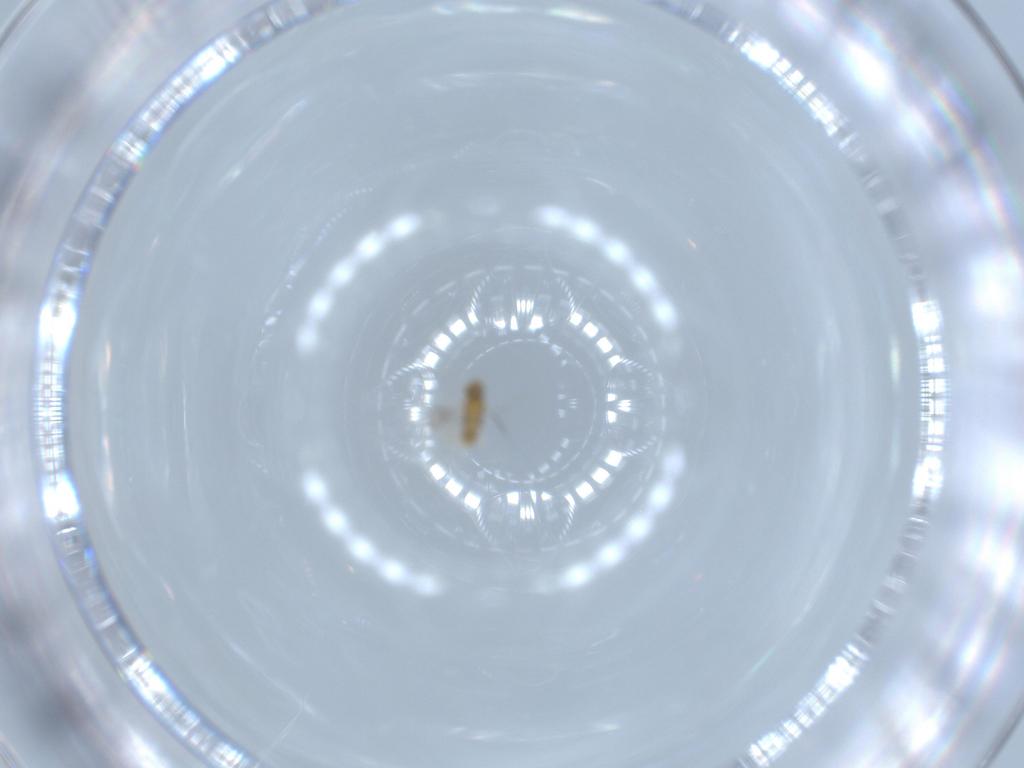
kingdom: Animalia
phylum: Arthropoda
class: Insecta
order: Hymenoptera
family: Aphelinidae
